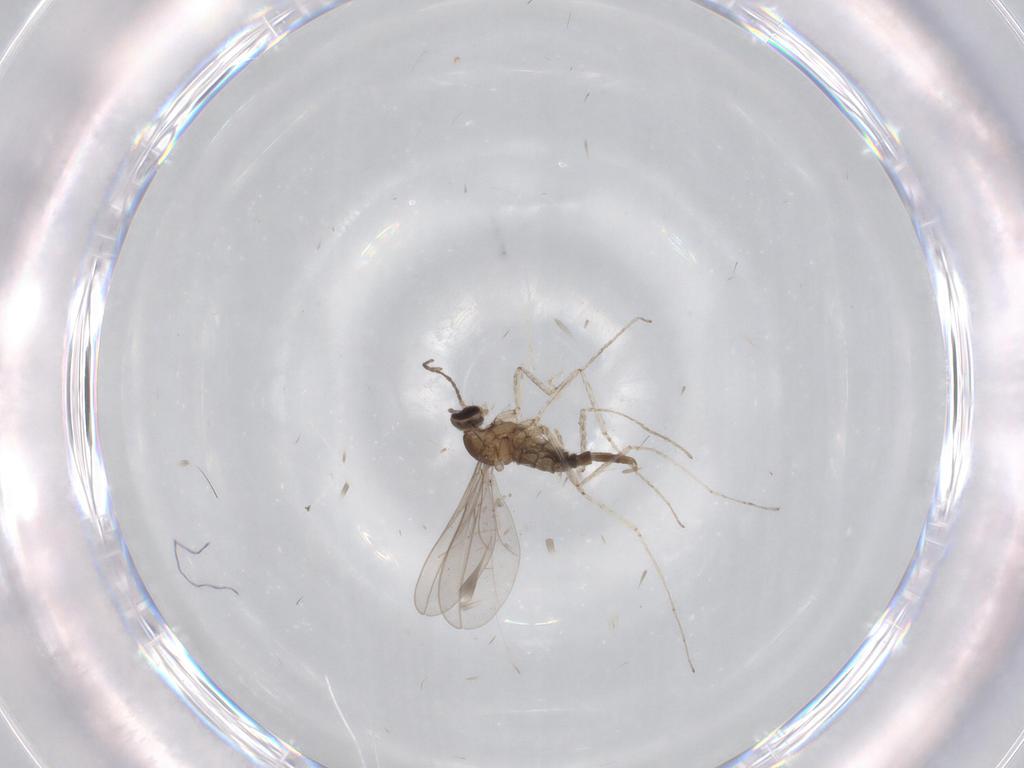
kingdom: Animalia
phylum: Arthropoda
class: Insecta
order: Diptera
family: Cecidomyiidae
